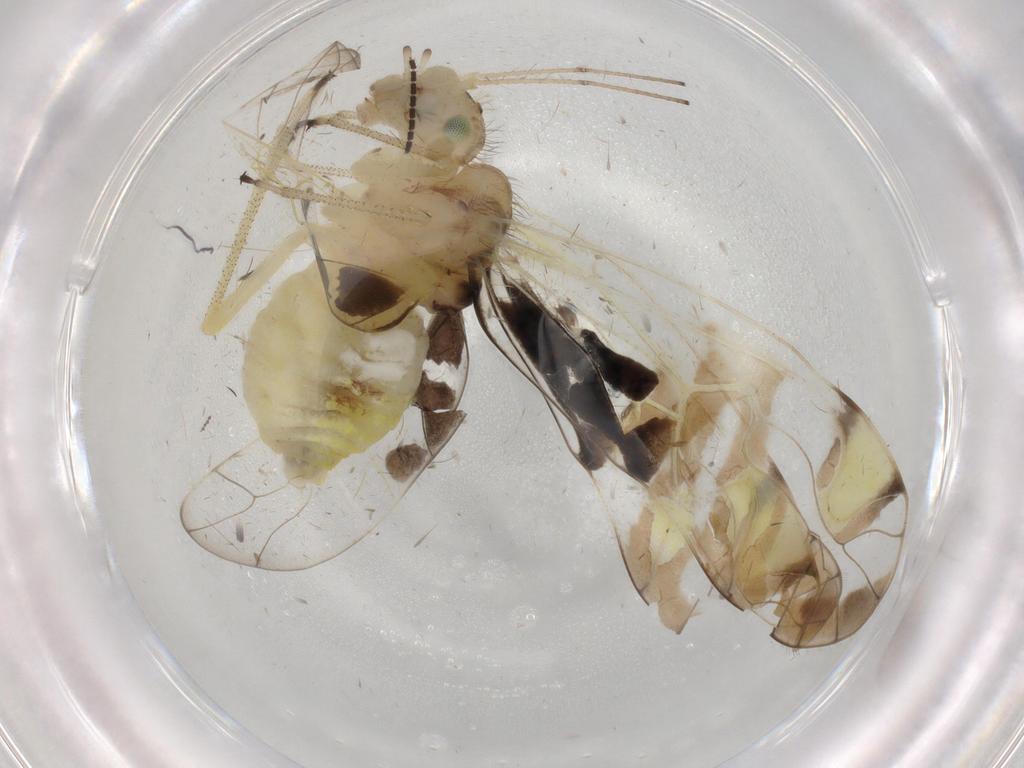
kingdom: Animalia
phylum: Arthropoda
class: Insecta
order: Psocodea
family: Amphipsocidae
